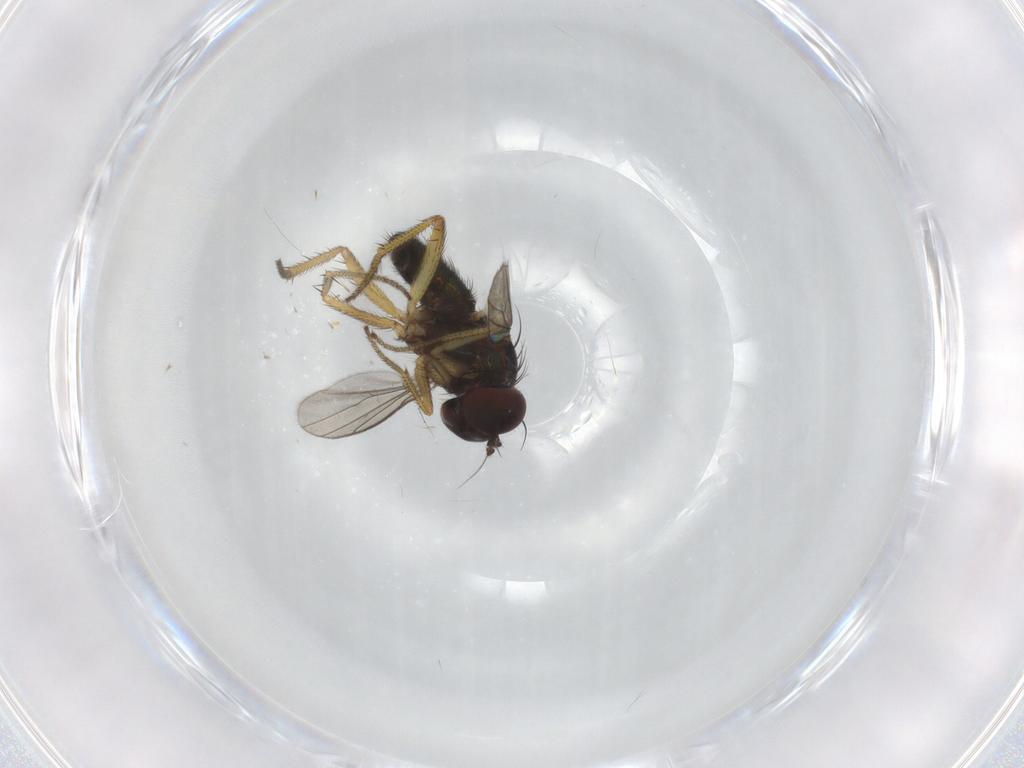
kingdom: Animalia
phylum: Arthropoda
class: Insecta
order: Diptera
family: Dolichopodidae
